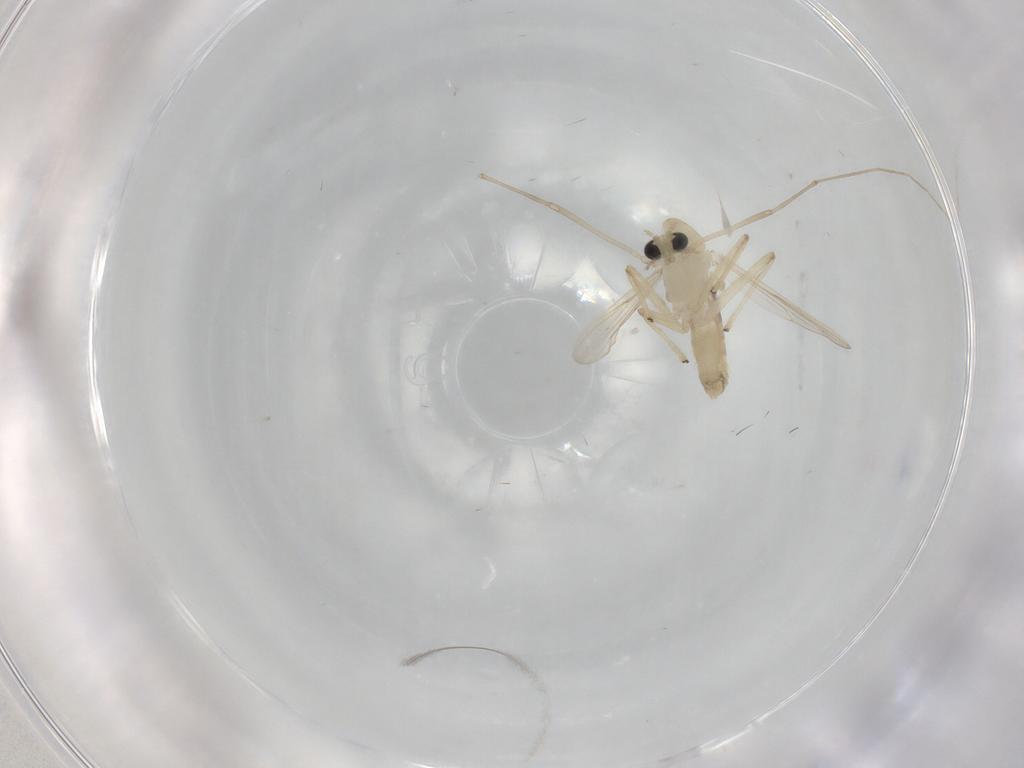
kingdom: Animalia
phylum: Arthropoda
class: Insecta
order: Diptera
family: Chironomidae
